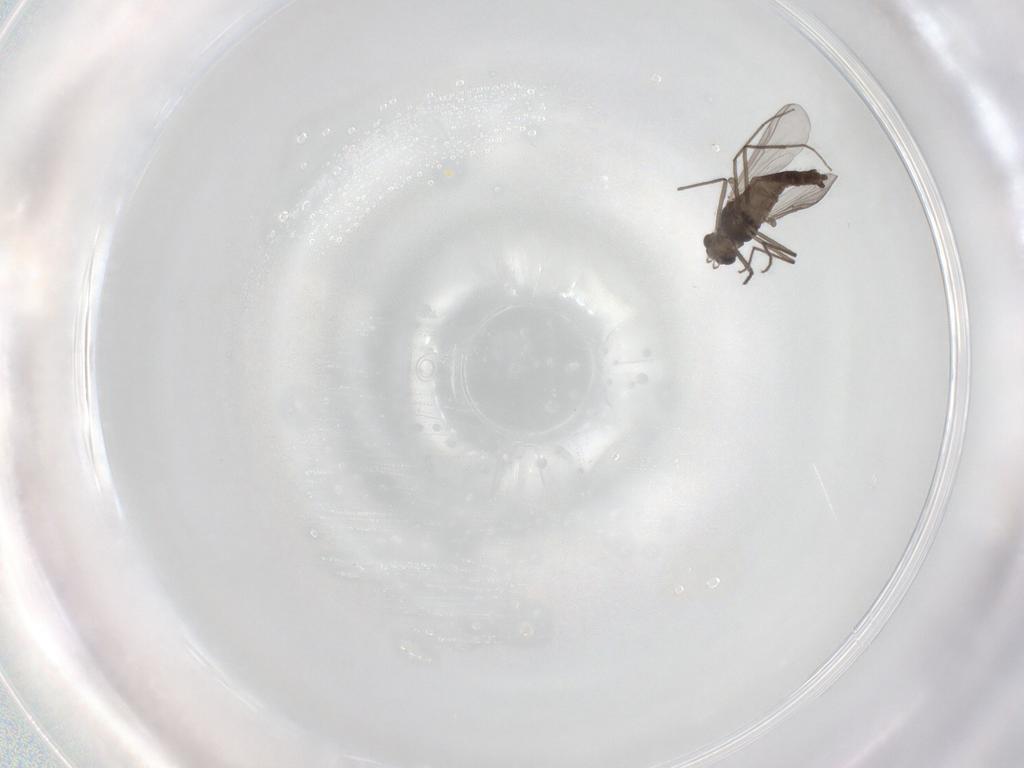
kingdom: Animalia
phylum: Arthropoda
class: Insecta
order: Diptera
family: Chironomidae
